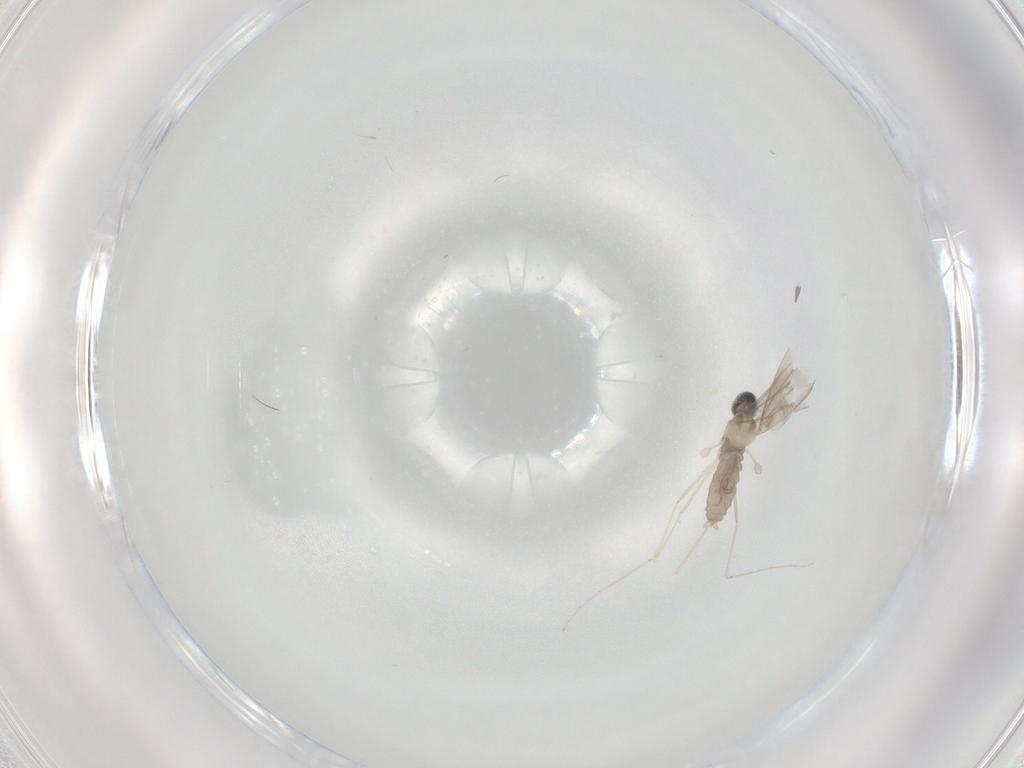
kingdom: Animalia
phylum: Arthropoda
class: Insecta
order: Diptera
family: Cecidomyiidae
